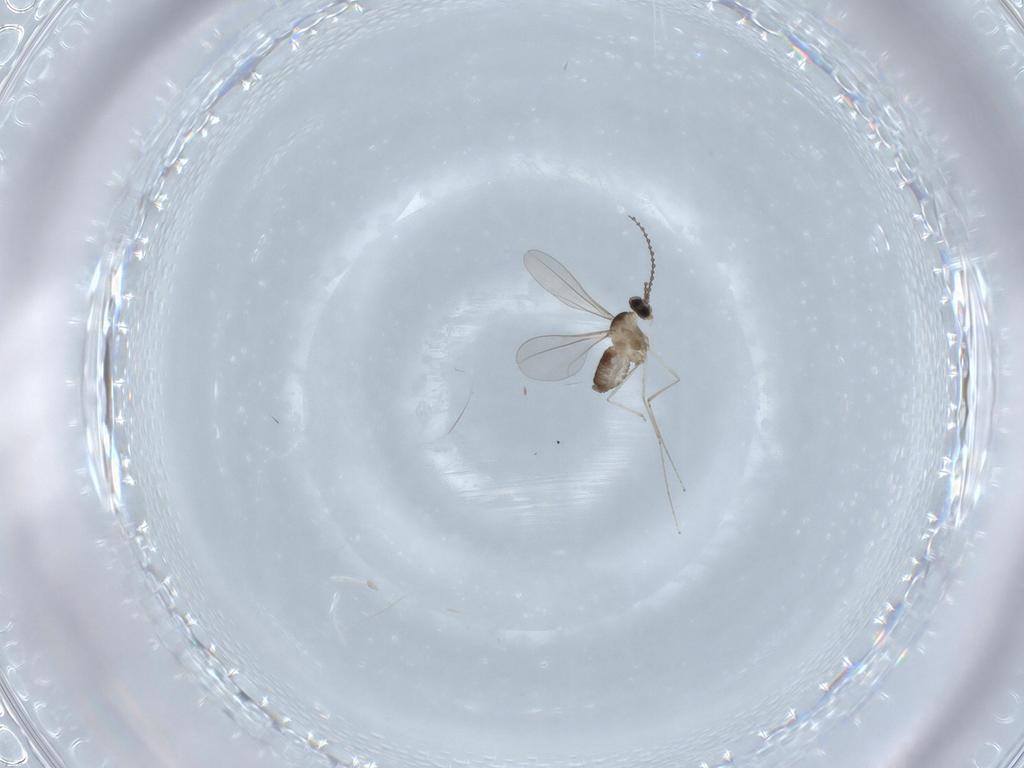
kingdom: Animalia
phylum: Arthropoda
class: Insecta
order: Diptera
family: Cecidomyiidae
